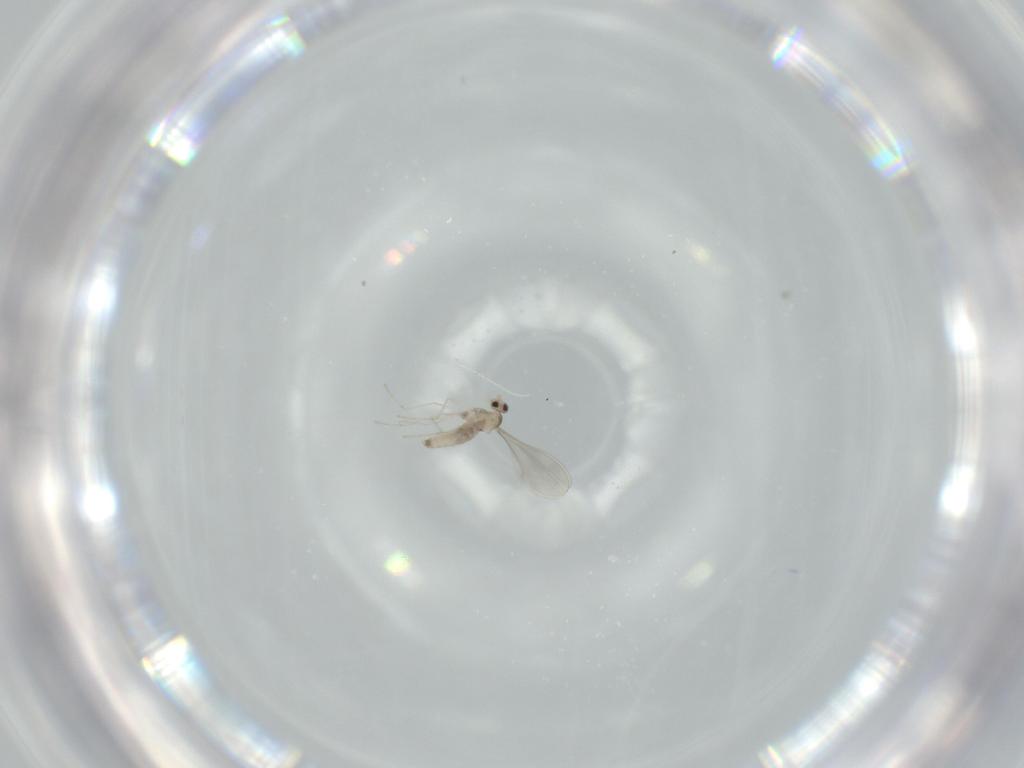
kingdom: Animalia
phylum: Arthropoda
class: Insecta
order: Diptera
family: Cecidomyiidae
